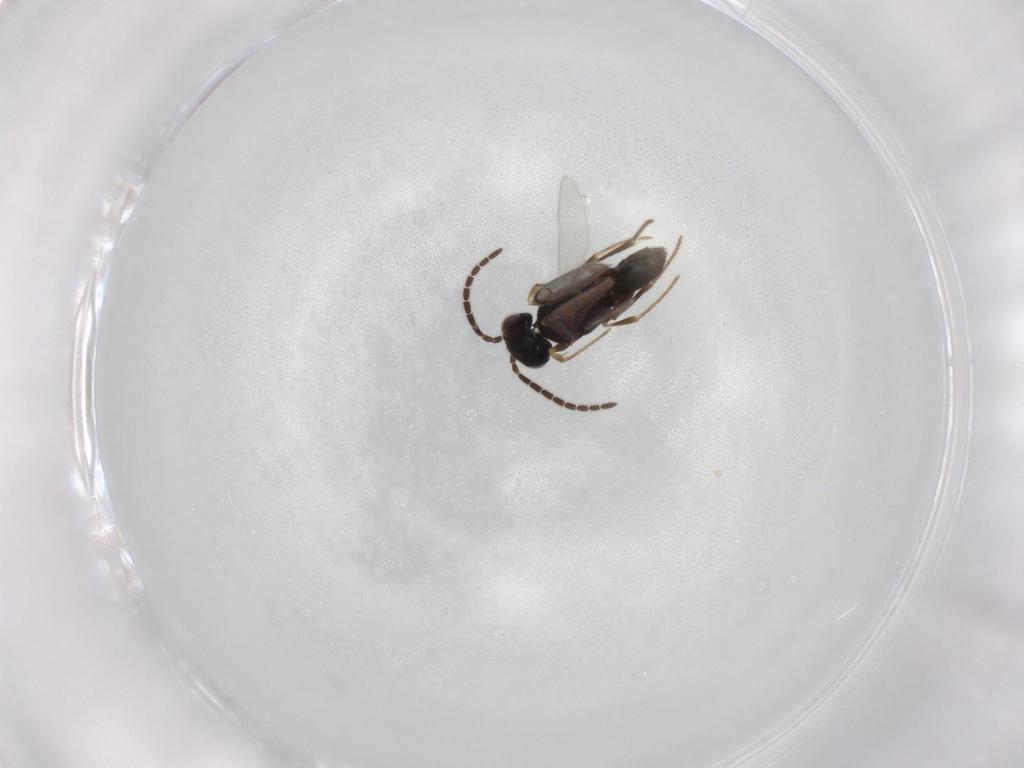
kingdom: Animalia
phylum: Arthropoda
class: Insecta
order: Hymenoptera
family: Dryinidae
